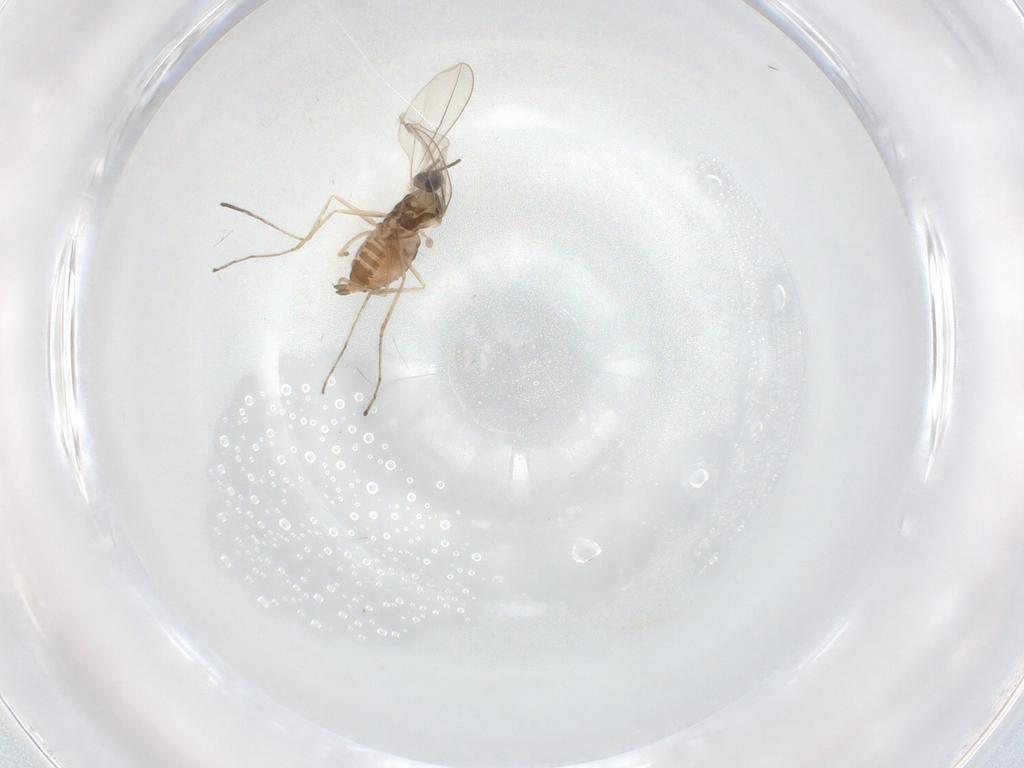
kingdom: Animalia
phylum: Arthropoda
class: Insecta
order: Diptera
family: Cecidomyiidae
